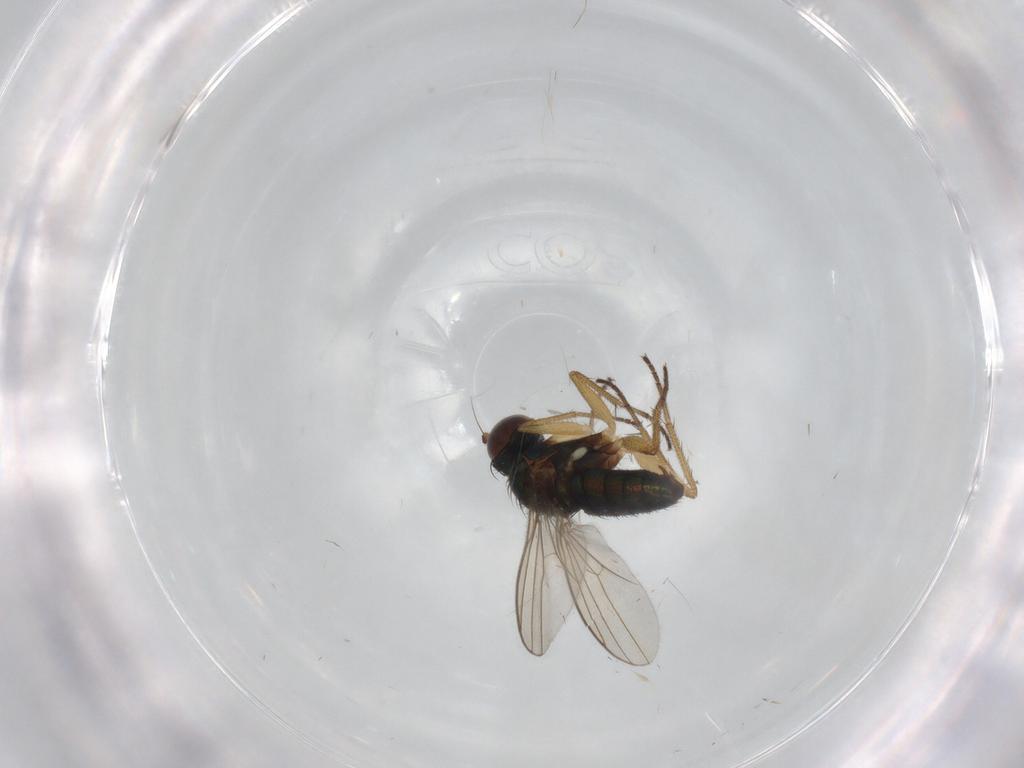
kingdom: Animalia
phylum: Arthropoda
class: Insecta
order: Diptera
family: Dolichopodidae
